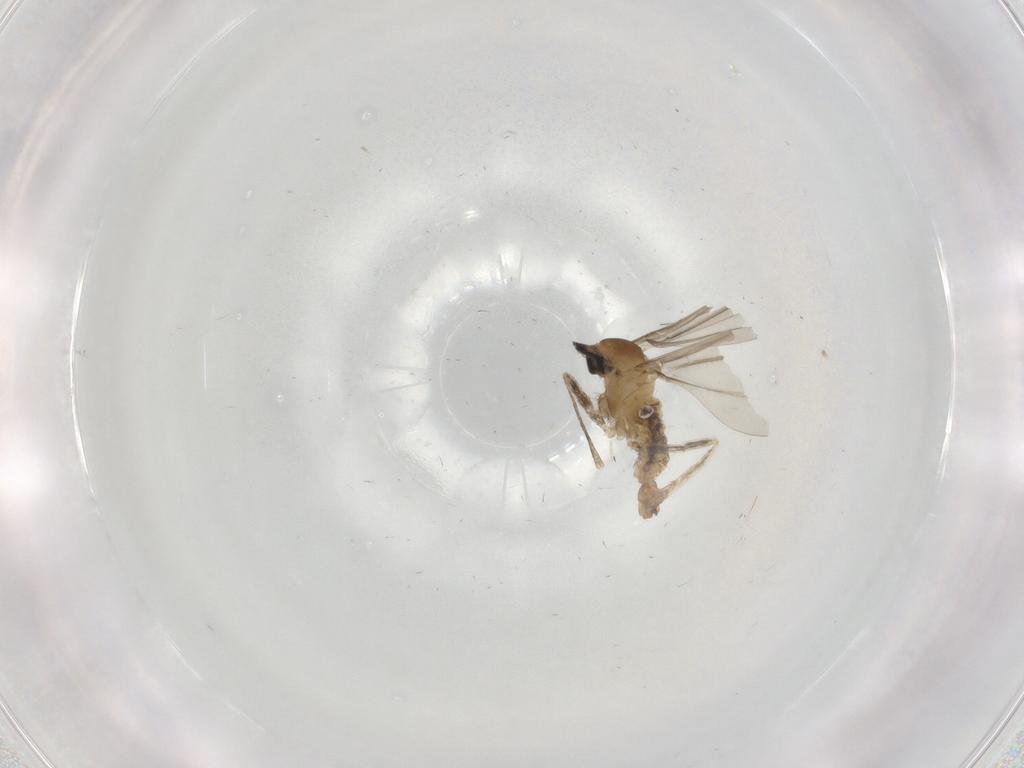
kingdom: Animalia
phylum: Arthropoda
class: Insecta
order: Diptera
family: Cecidomyiidae
